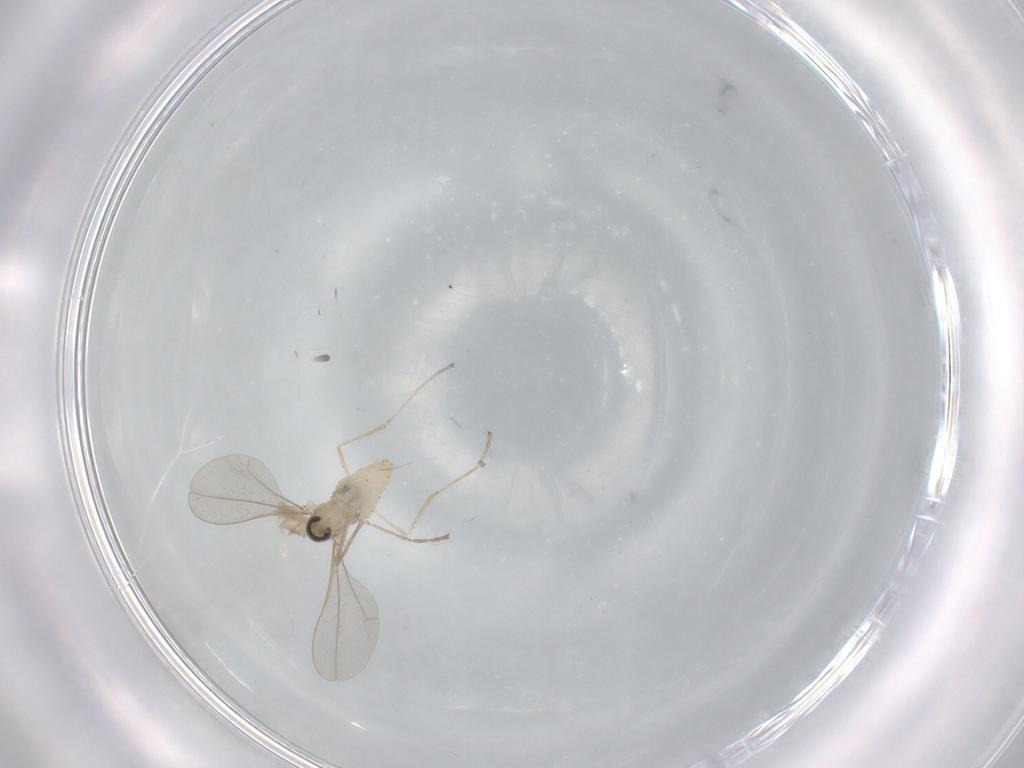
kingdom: Animalia
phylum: Arthropoda
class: Insecta
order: Diptera
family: Cecidomyiidae
